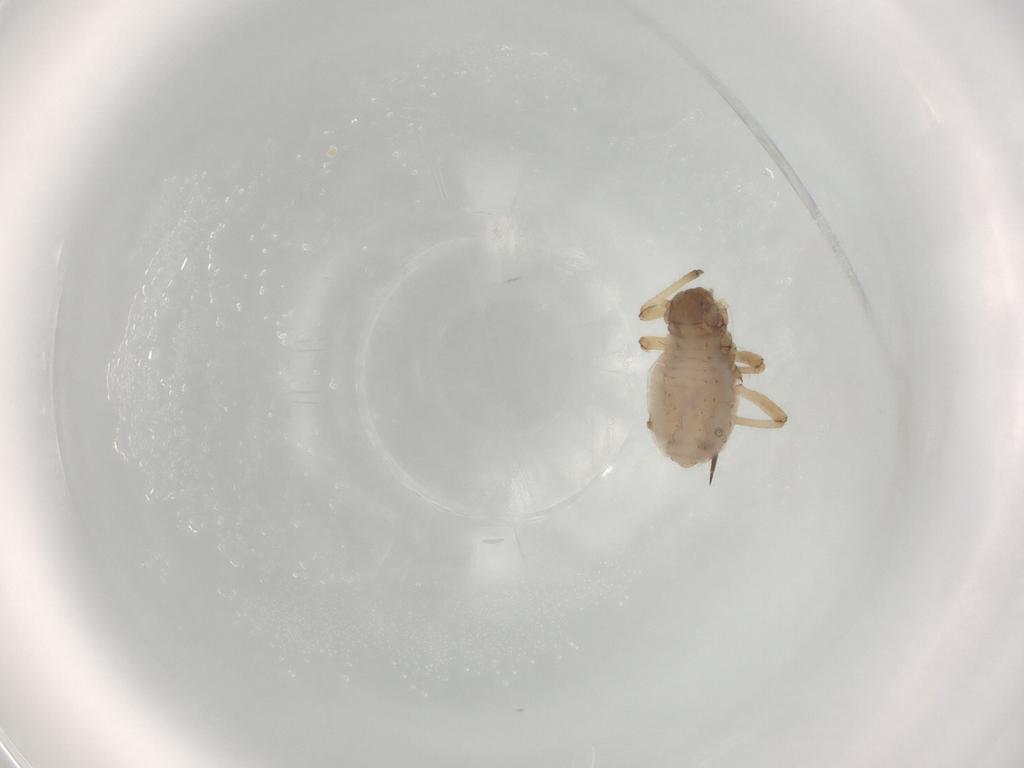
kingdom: Animalia
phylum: Arthropoda
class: Insecta
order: Hemiptera
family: Aphididae
